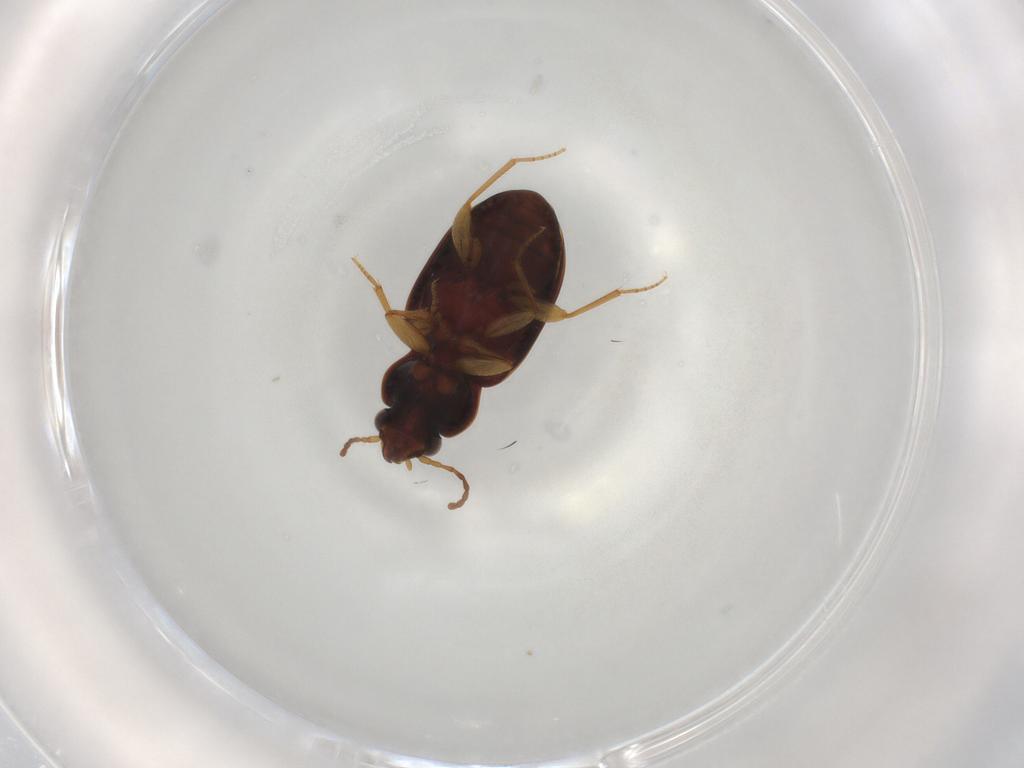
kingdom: Animalia
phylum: Arthropoda
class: Insecta
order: Coleoptera
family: Carabidae
